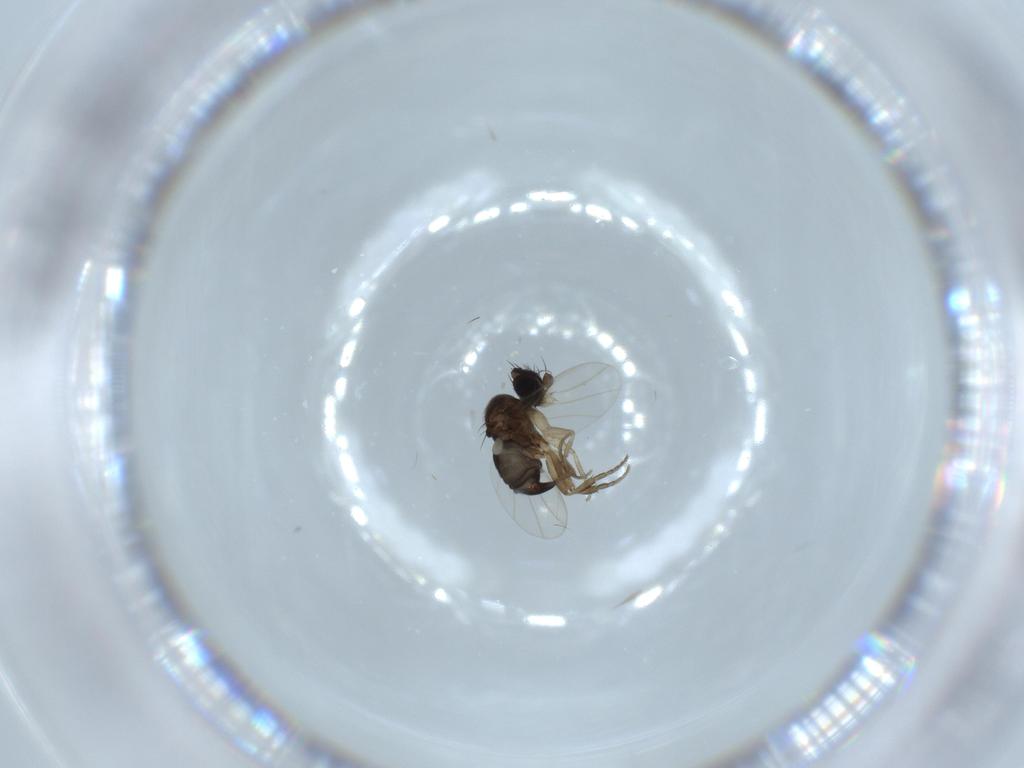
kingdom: Animalia
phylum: Arthropoda
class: Insecta
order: Diptera
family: Phoridae
